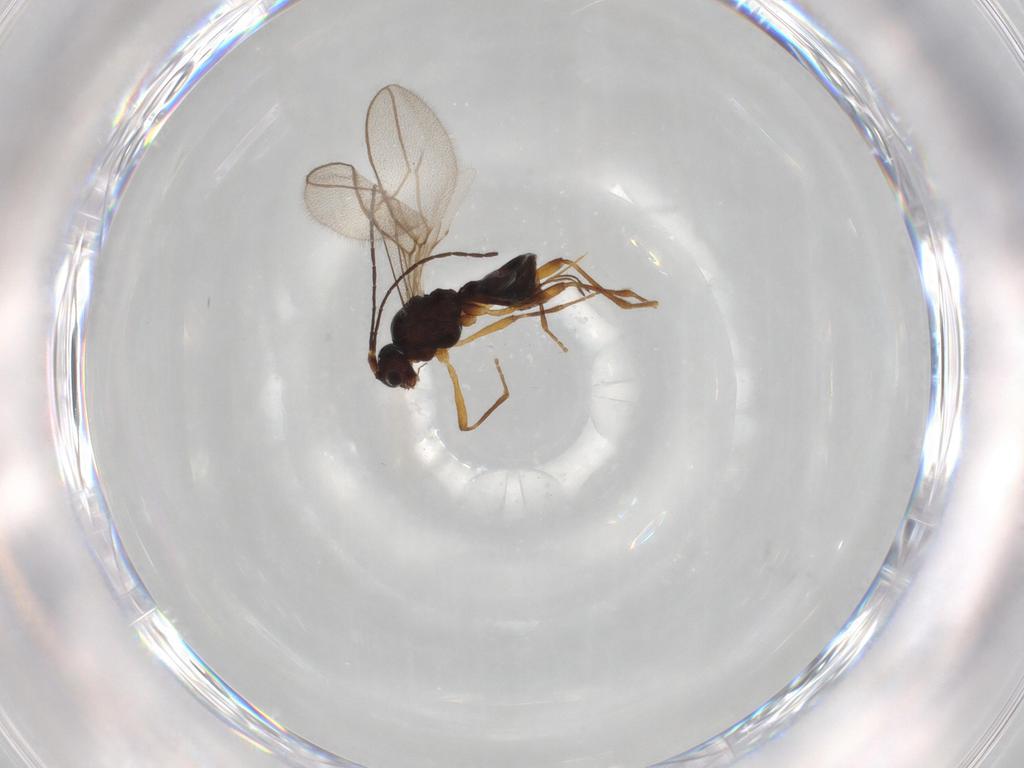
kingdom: Animalia
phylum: Arthropoda
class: Insecta
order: Hymenoptera
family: Braconidae
